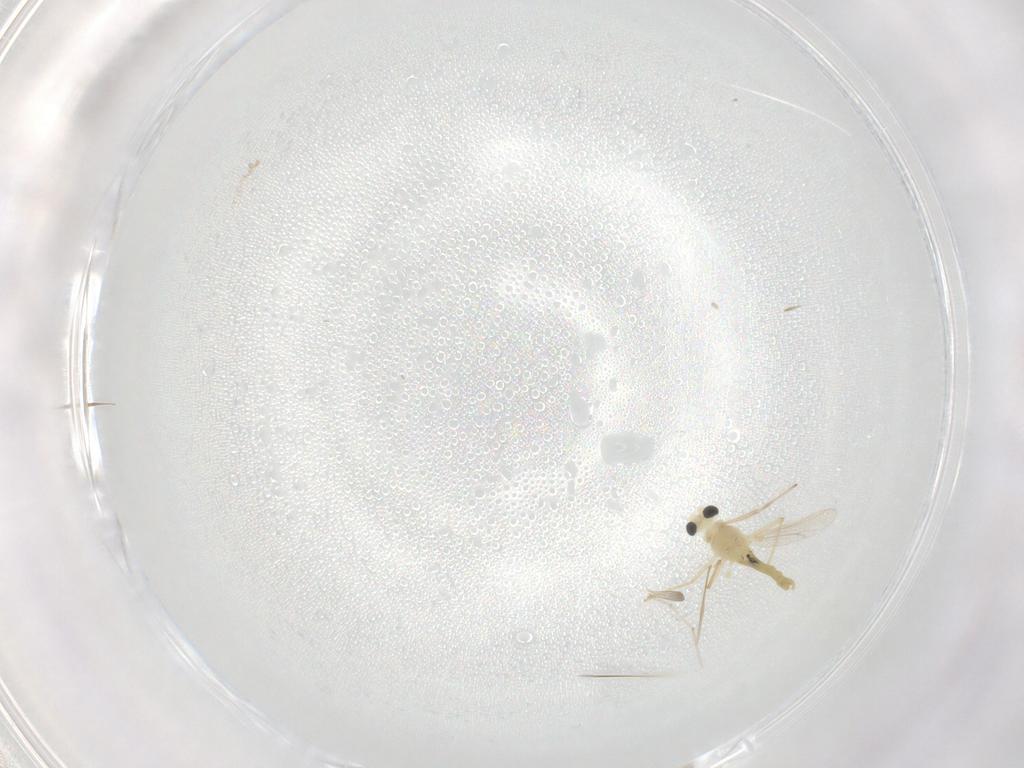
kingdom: Animalia
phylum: Arthropoda
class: Insecta
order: Diptera
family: Chironomidae
